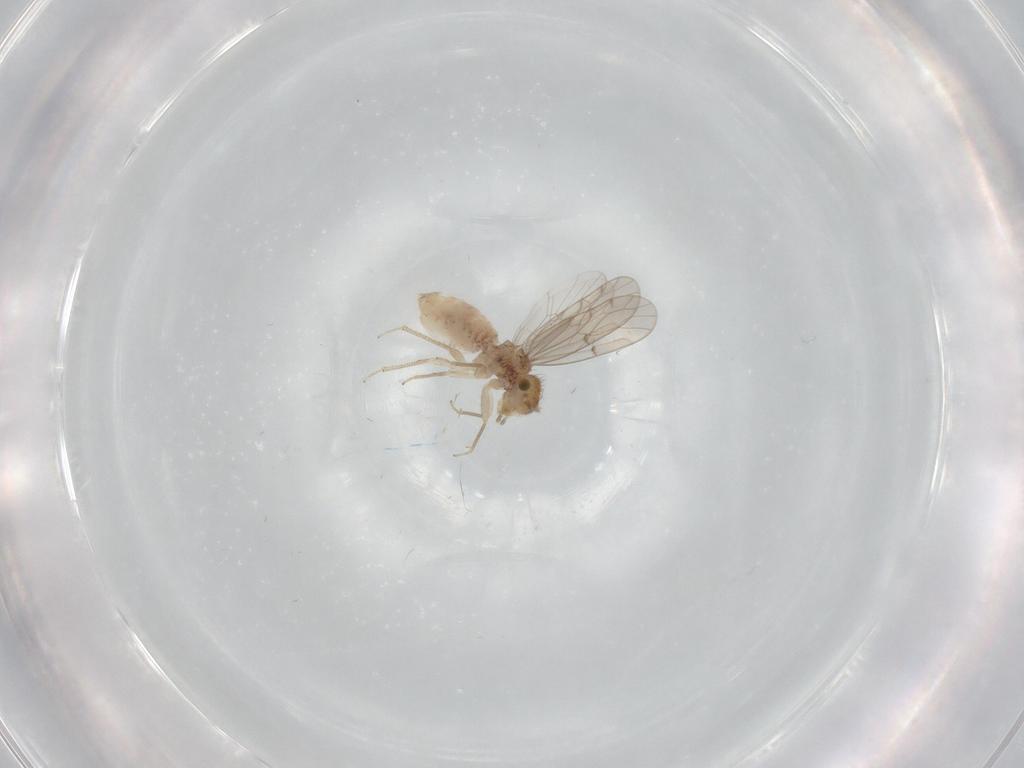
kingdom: Animalia
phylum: Arthropoda
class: Insecta
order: Psocodea
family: Ectopsocidae
